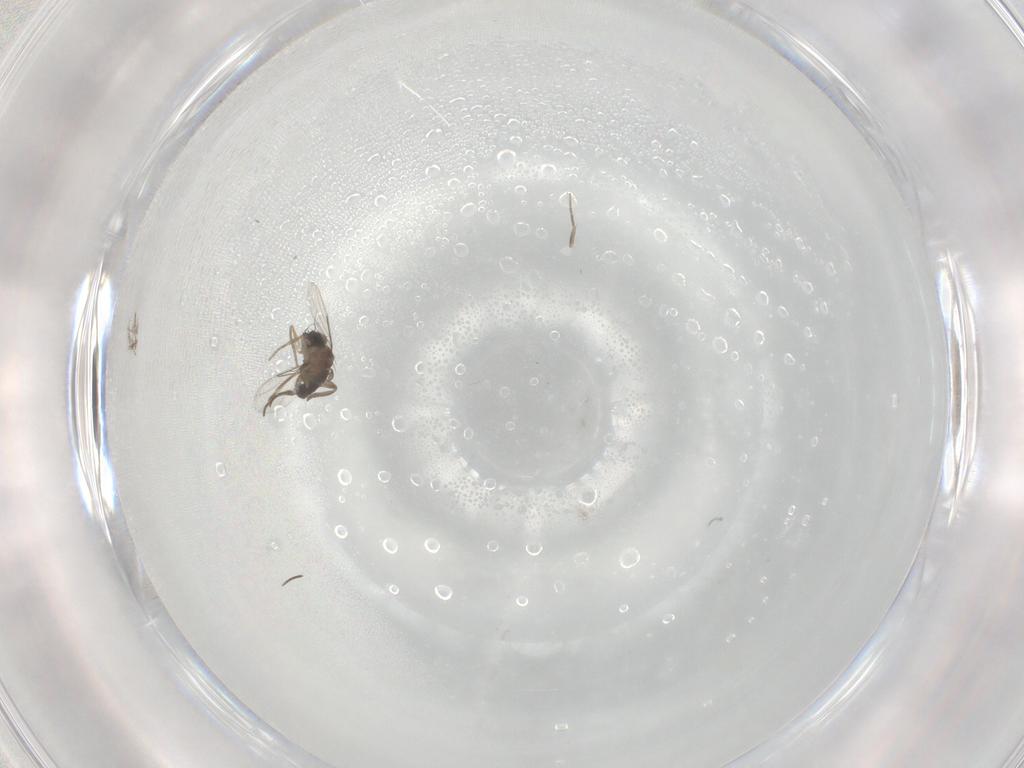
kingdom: Animalia
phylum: Arthropoda
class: Insecta
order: Diptera
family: Phoridae
